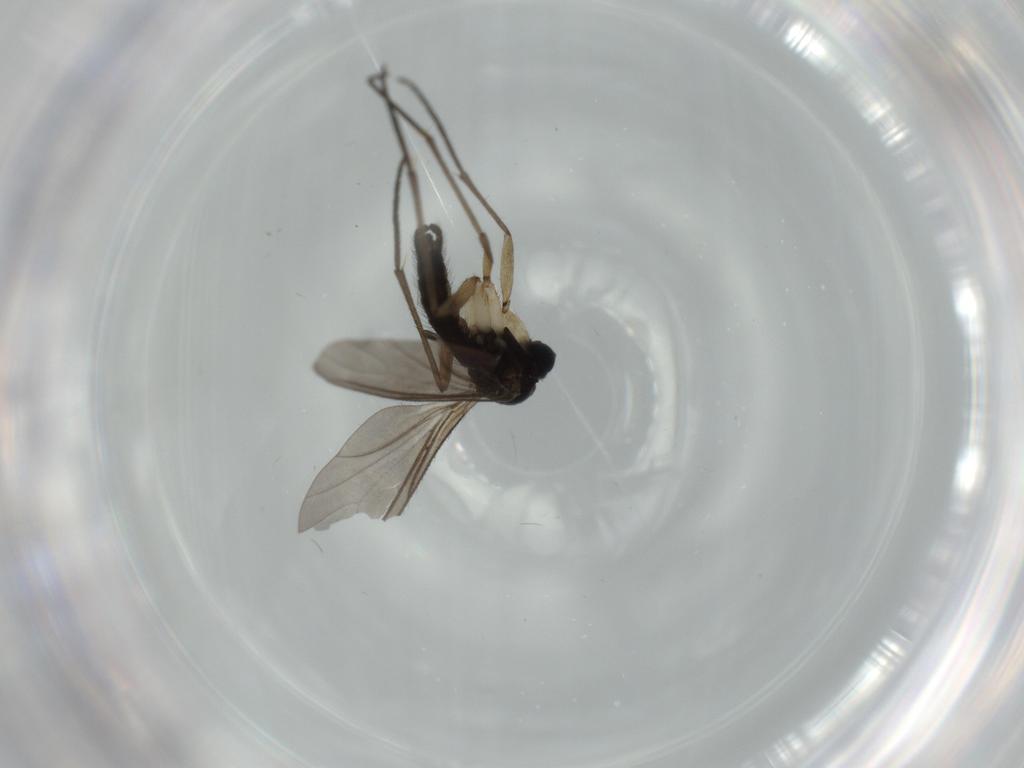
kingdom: Animalia
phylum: Arthropoda
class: Insecta
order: Diptera
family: Sciaridae
